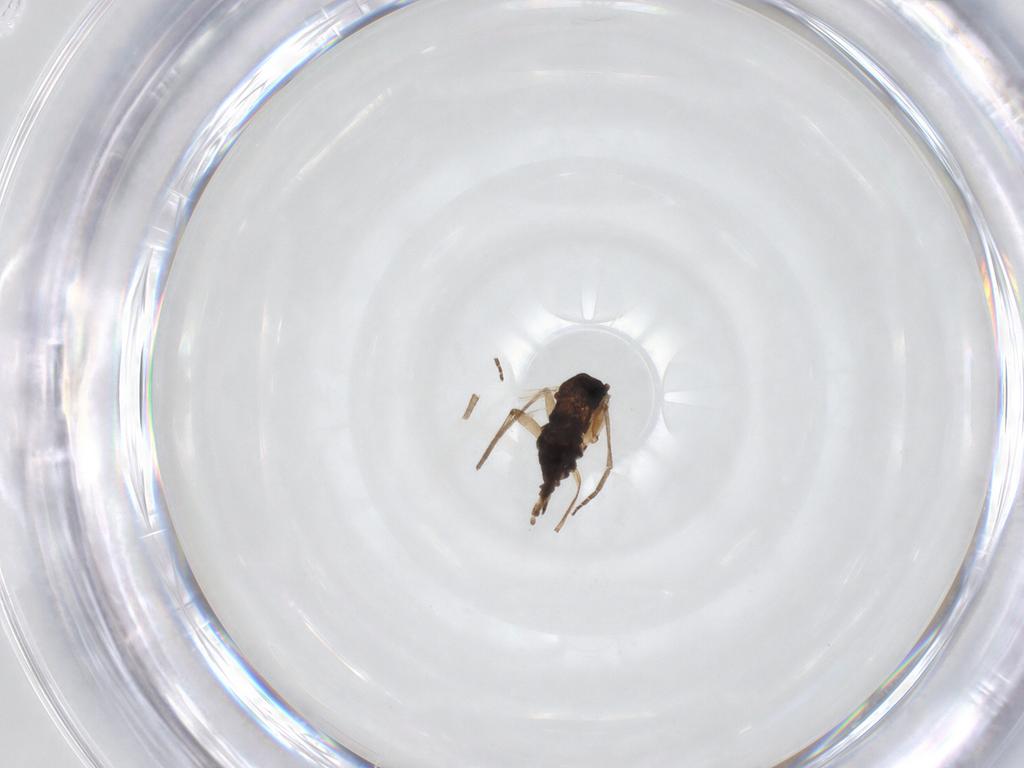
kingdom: Animalia
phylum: Arthropoda
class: Insecta
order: Diptera
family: Sciaridae
